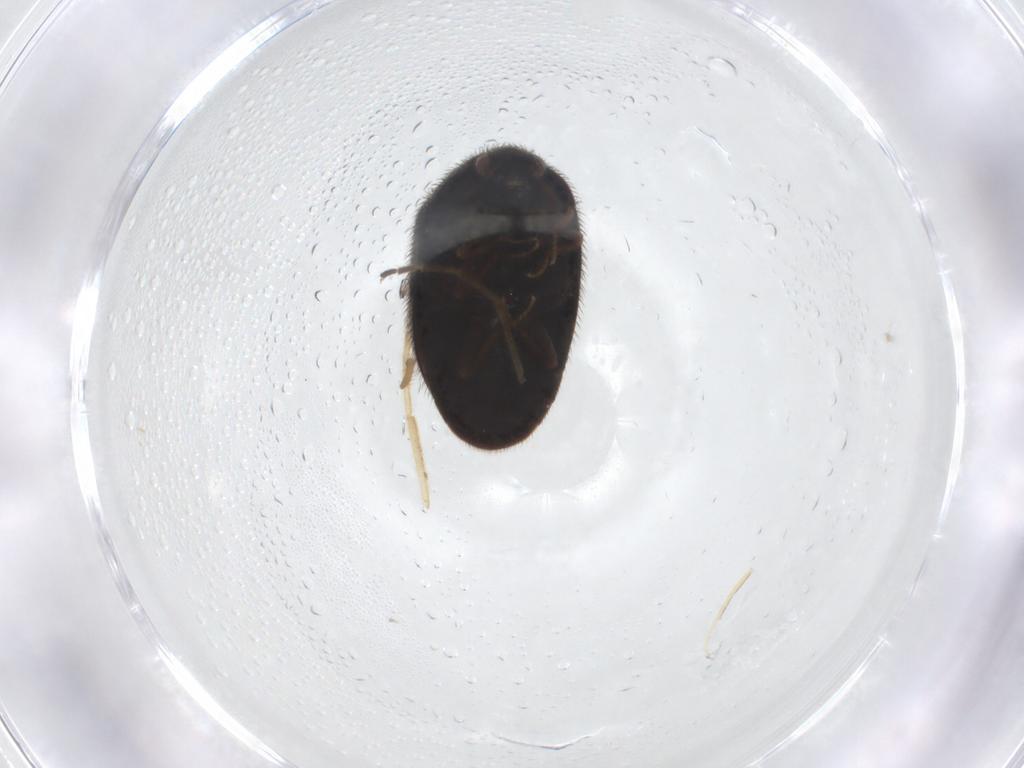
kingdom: Animalia
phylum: Arthropoda
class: Insecta
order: Coleoptera
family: Dermestidae
